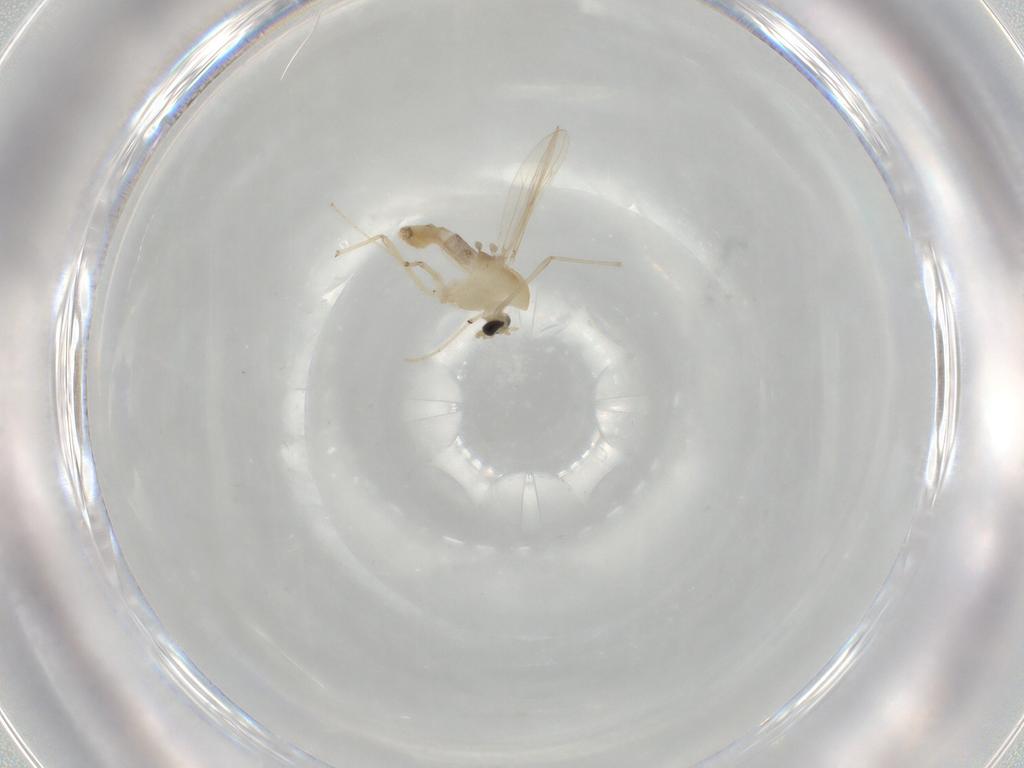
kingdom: Animalia
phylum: Arthropoda
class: Insecta
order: Diptera
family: Chironomidae
